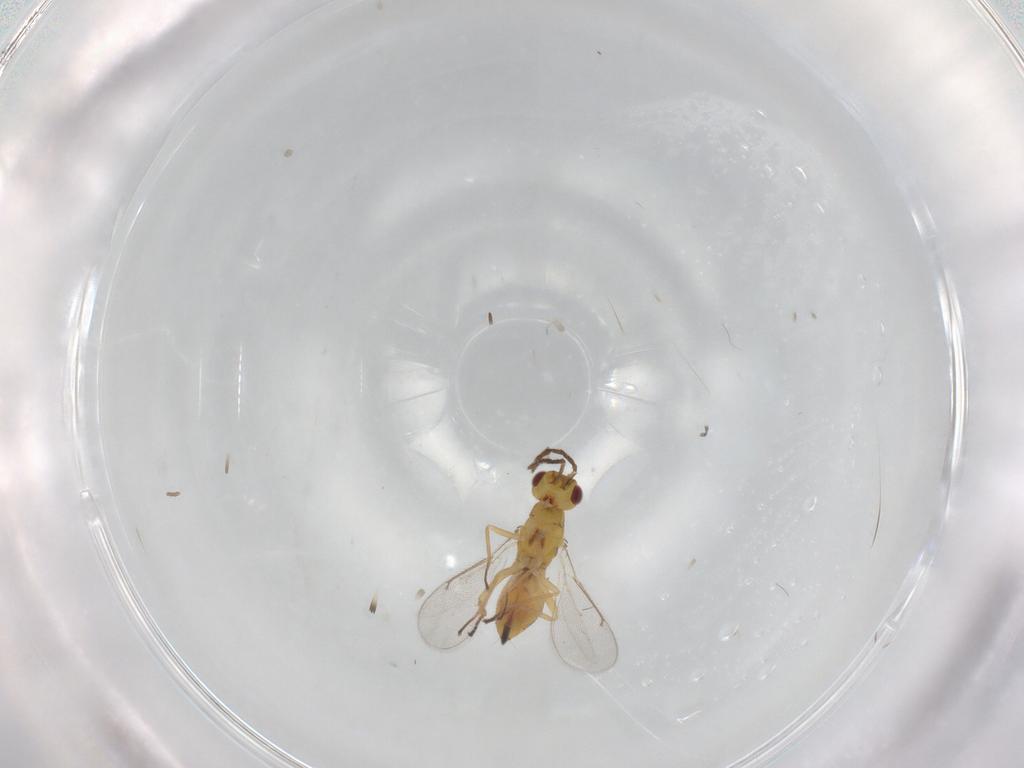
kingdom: Animalia
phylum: Arthropoda
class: Insecta
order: Hymenoptera
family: Eulophidae
